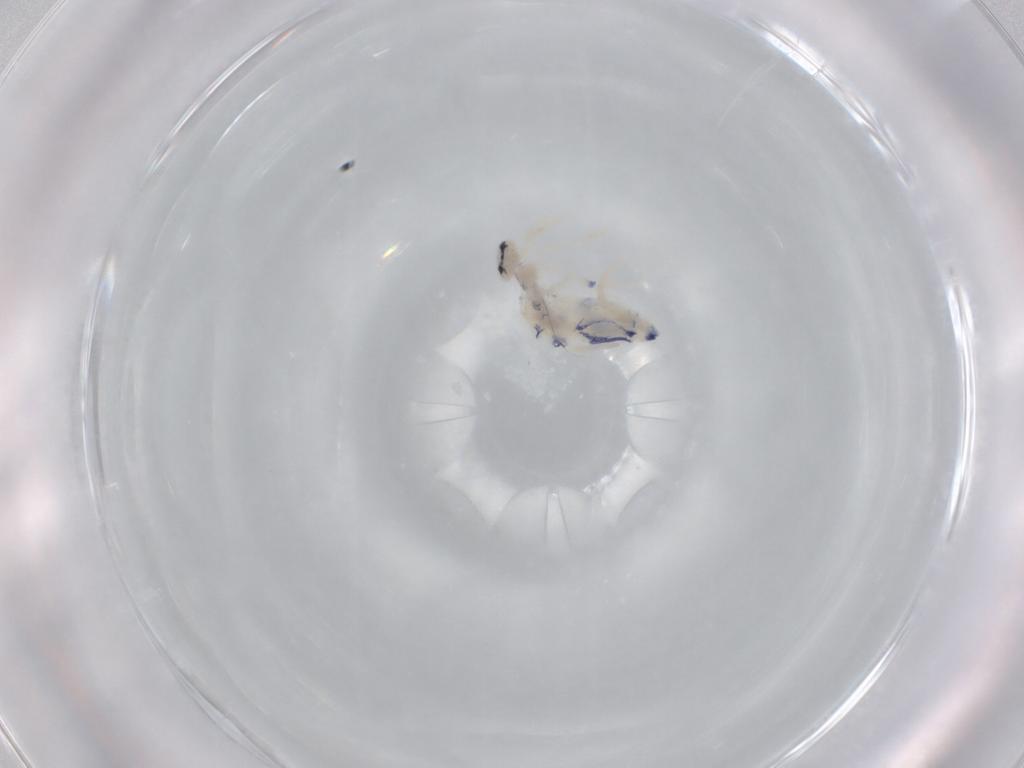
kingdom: Animalia
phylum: Arthropoda
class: Collembola
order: Entomobryomorpha
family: Entomobryidae
